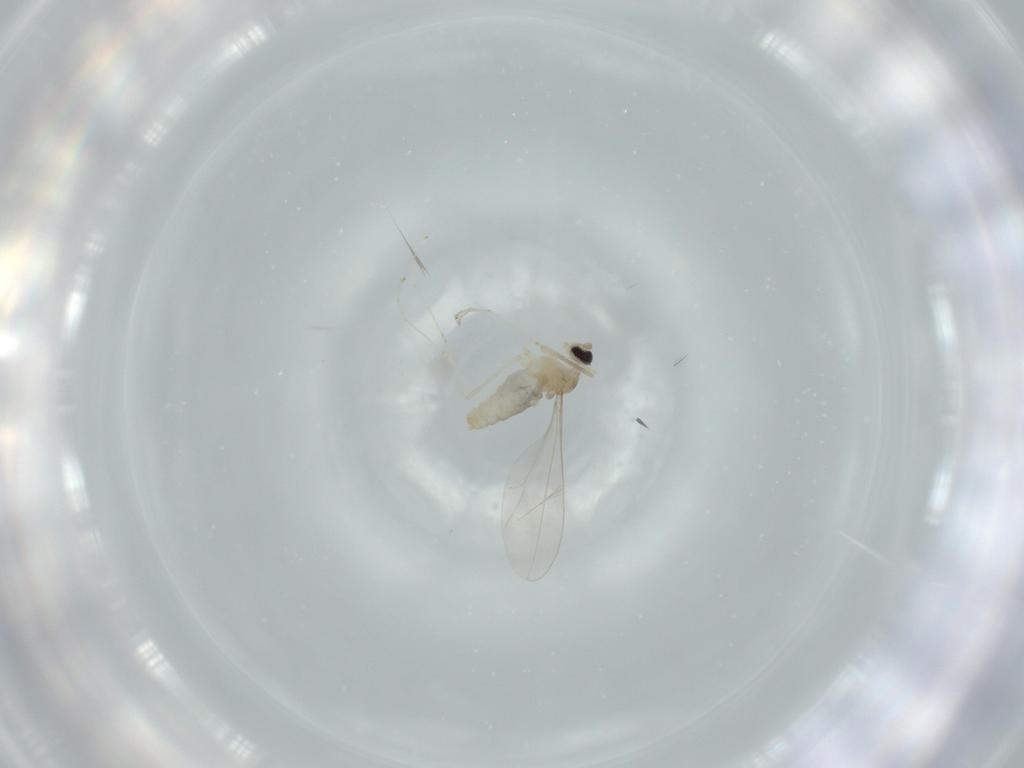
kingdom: Animalia
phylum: Arthropoda
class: Insecta
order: Diptera
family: Cecidomyiidae
